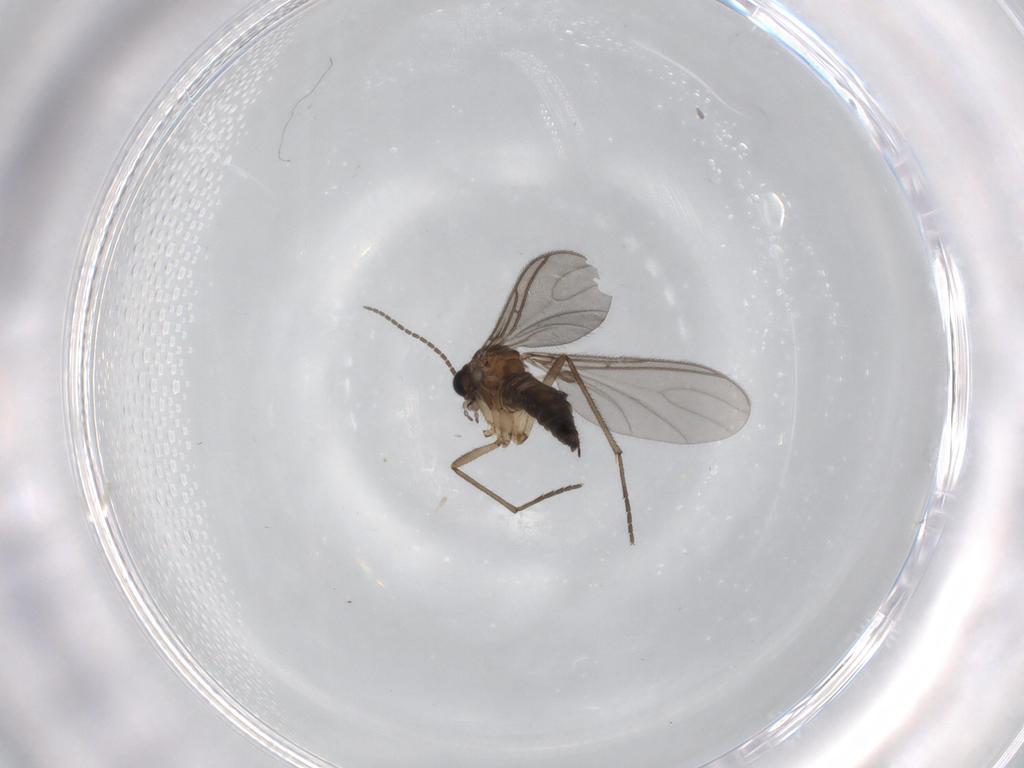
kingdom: Animalia
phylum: Arthropoda
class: Insecta
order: Diptera
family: Sciaridae
